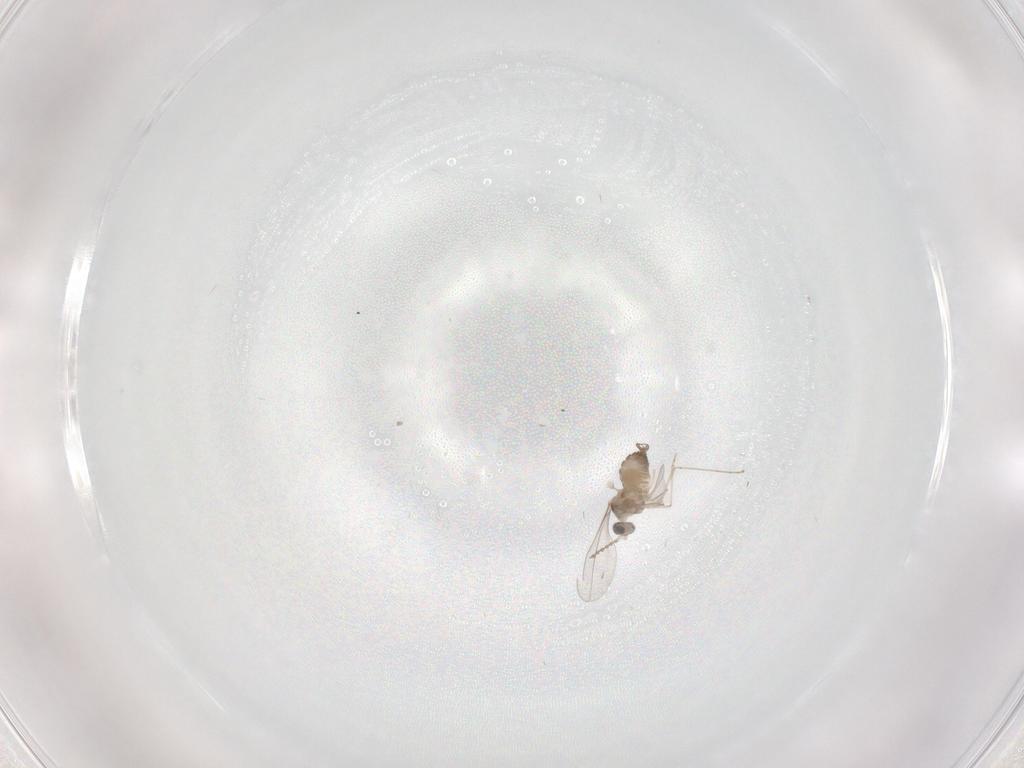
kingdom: Animalia
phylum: Arthropoda
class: Insecta
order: Diptera
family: Cecidomyiidae
